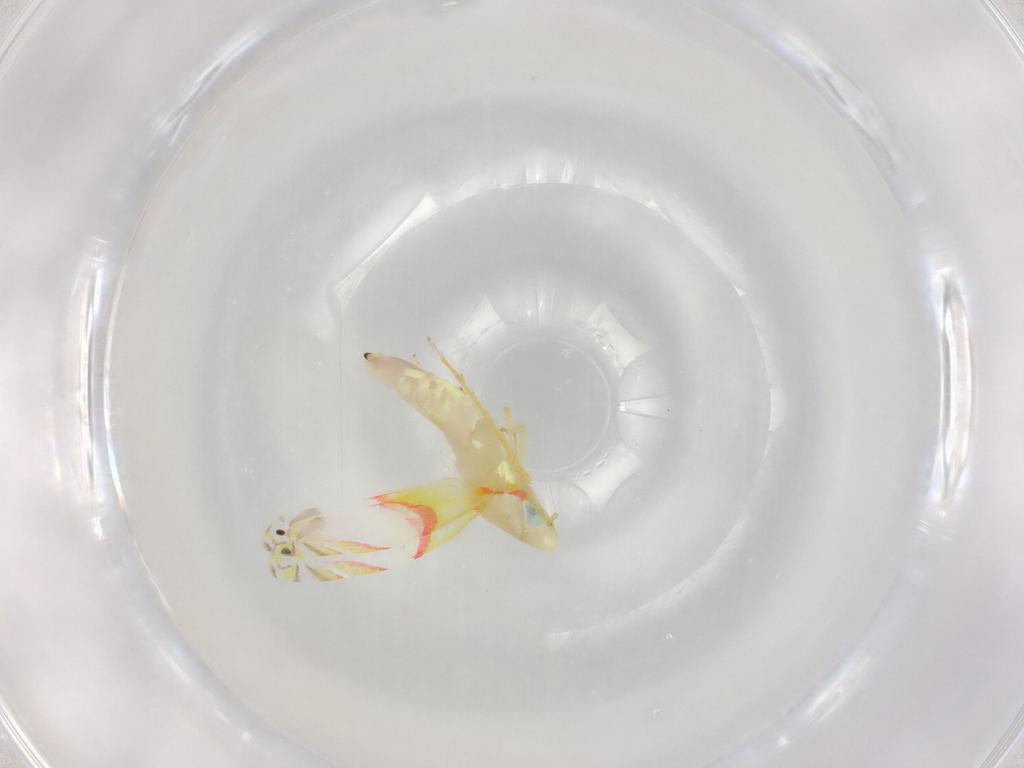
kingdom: Animalia
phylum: Arthropoda
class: Insecta
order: Hemiptera
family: Cicadellidae
